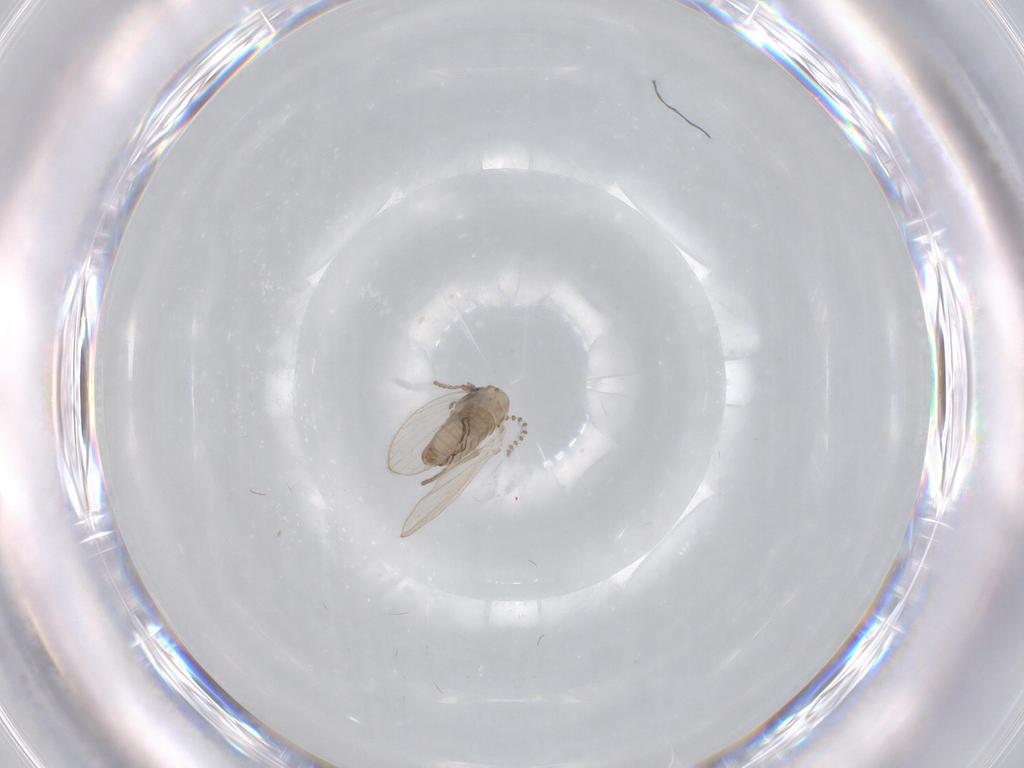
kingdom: Animalia
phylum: Arthropoda
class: Insecta
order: Diptera
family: Psychodidae
